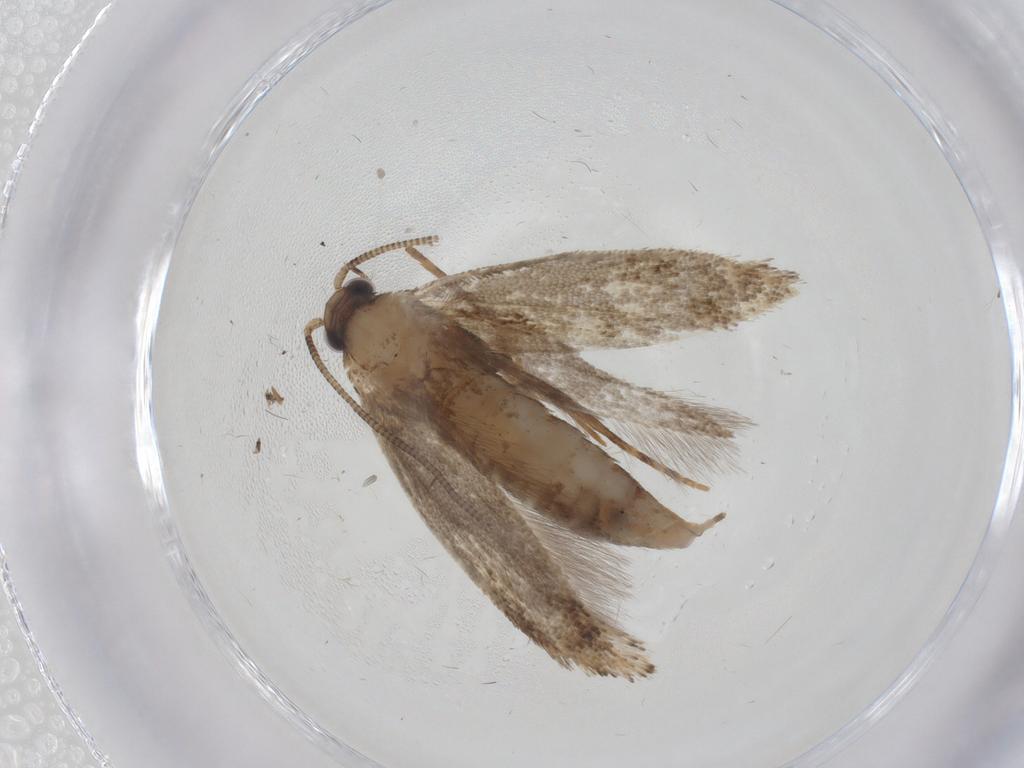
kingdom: Animalia
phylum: Arthropoda
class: Insecta
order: Lepidoptera
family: Tineidae
